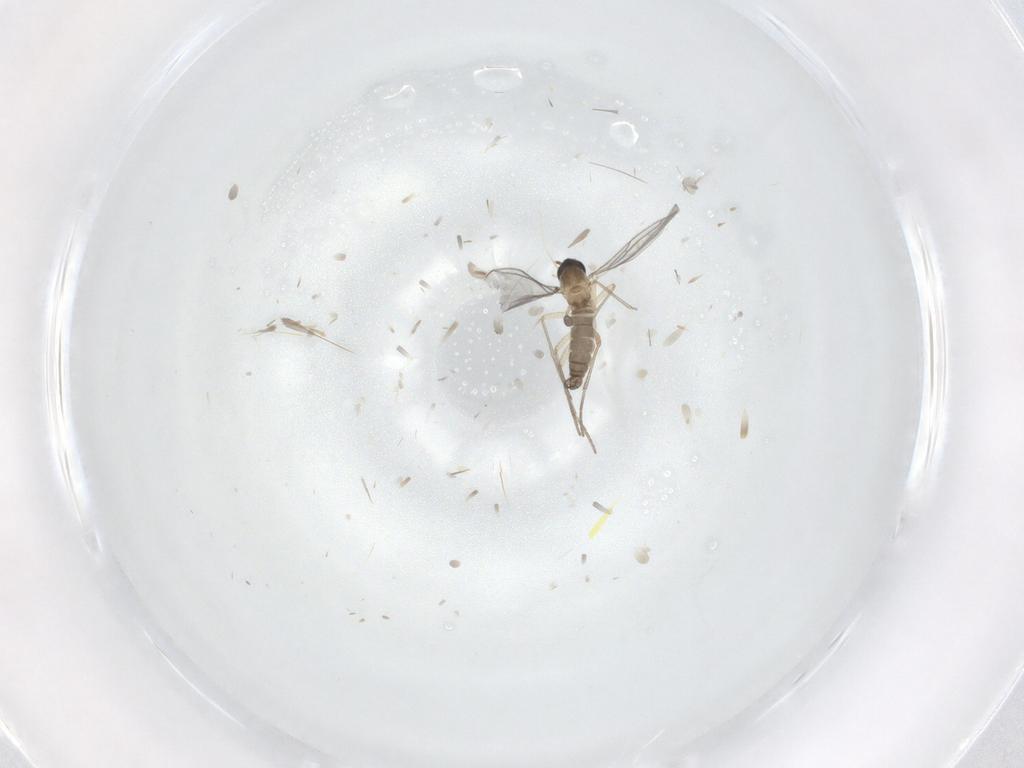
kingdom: Animalia
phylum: Arthropoda
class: Insecta
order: Diptera
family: Sciaridae
